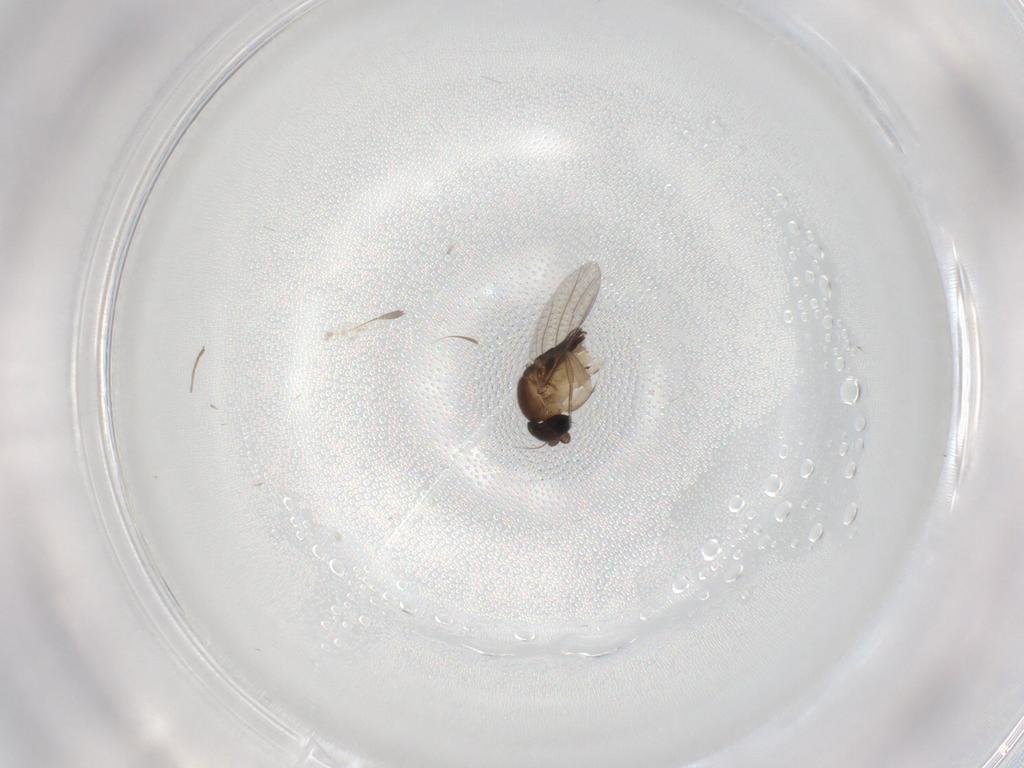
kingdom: Animalia
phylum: Arthropoda
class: Insecta
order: Diptera
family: Phoridae
